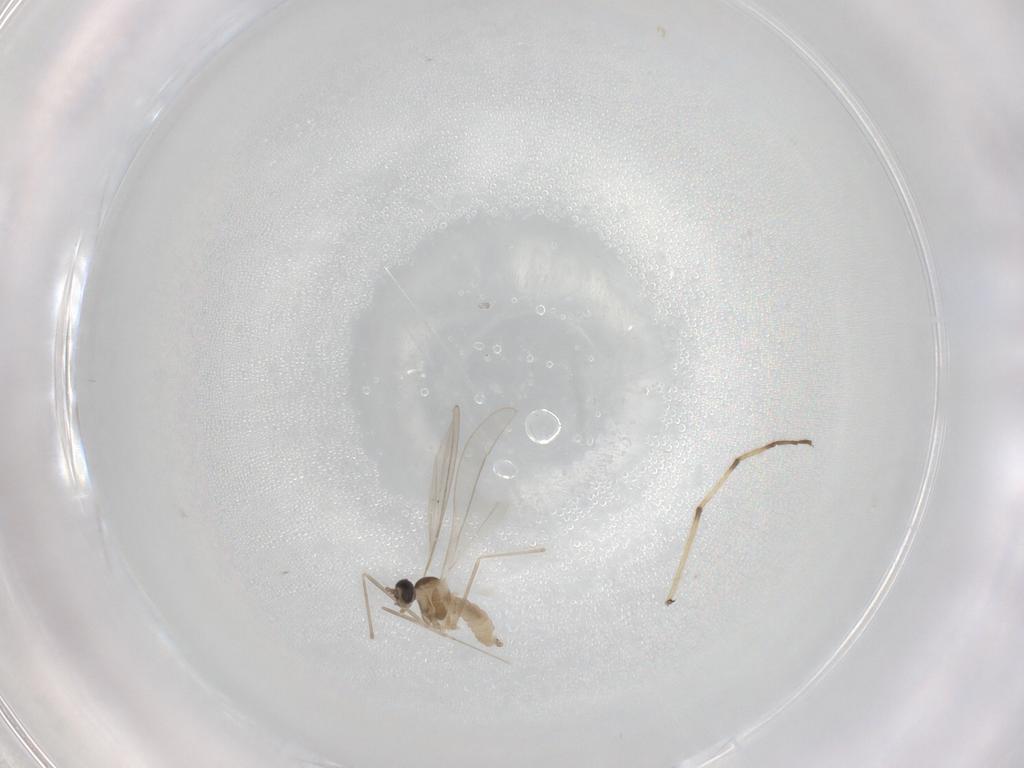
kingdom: Animalia
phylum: Arthropoda
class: Insecta
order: Diptera
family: Cecidomyiidae
